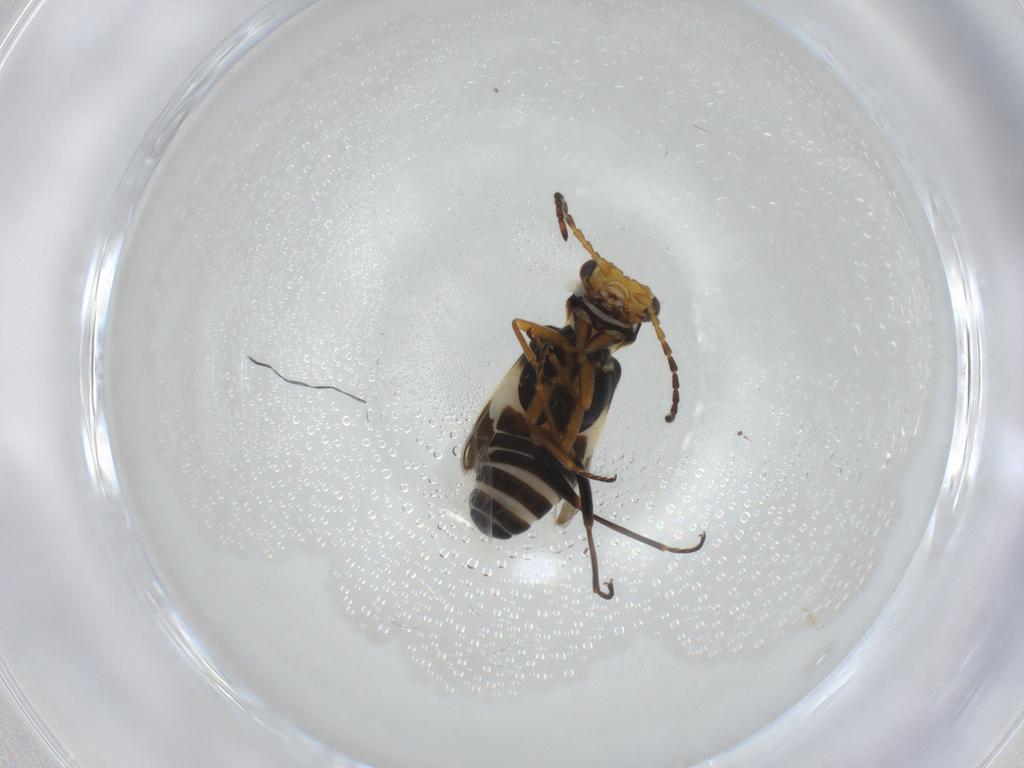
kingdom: Animalia
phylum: Arthropoda
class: Insecta
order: Coleoptera
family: Melyridae
